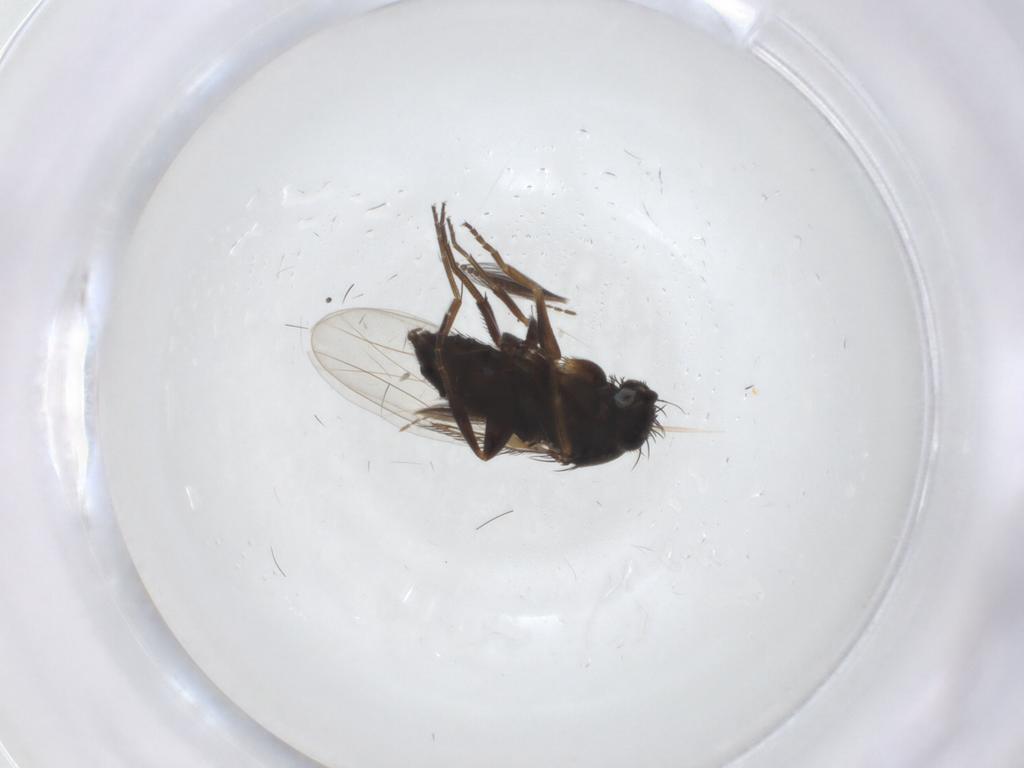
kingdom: Animalia
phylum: Arthropoda
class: Insecta
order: Diptera
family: Phoridae
